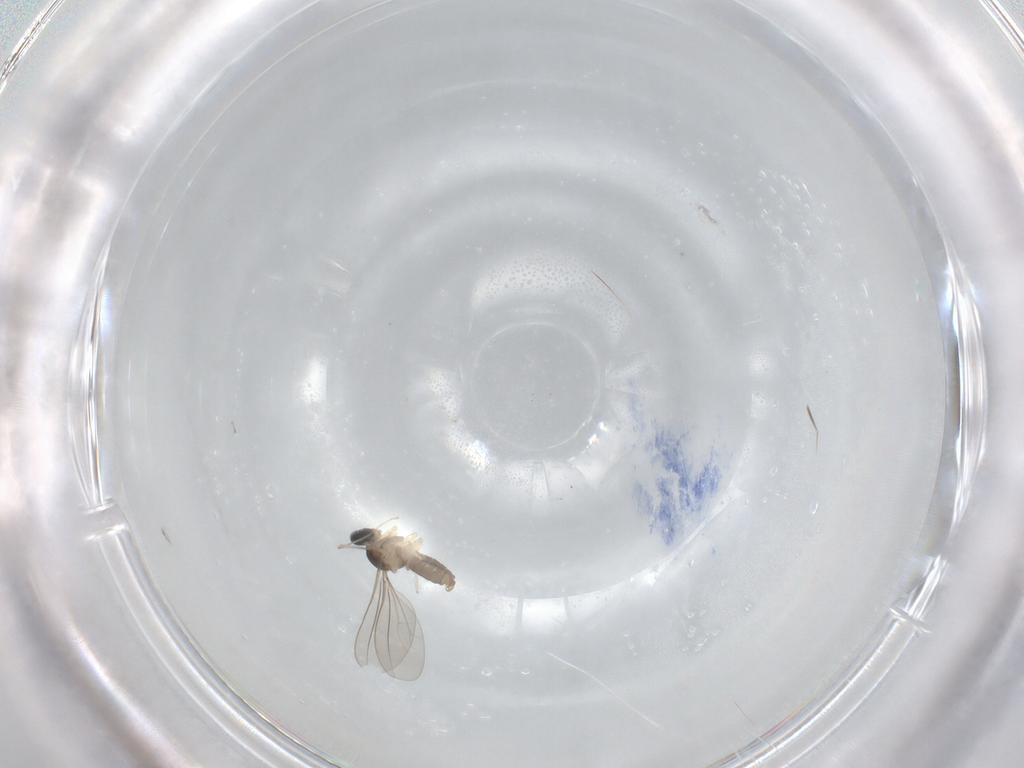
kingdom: Animalia
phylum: Arthropoda
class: Insecta
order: Diptera
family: Cecidomyiidae
